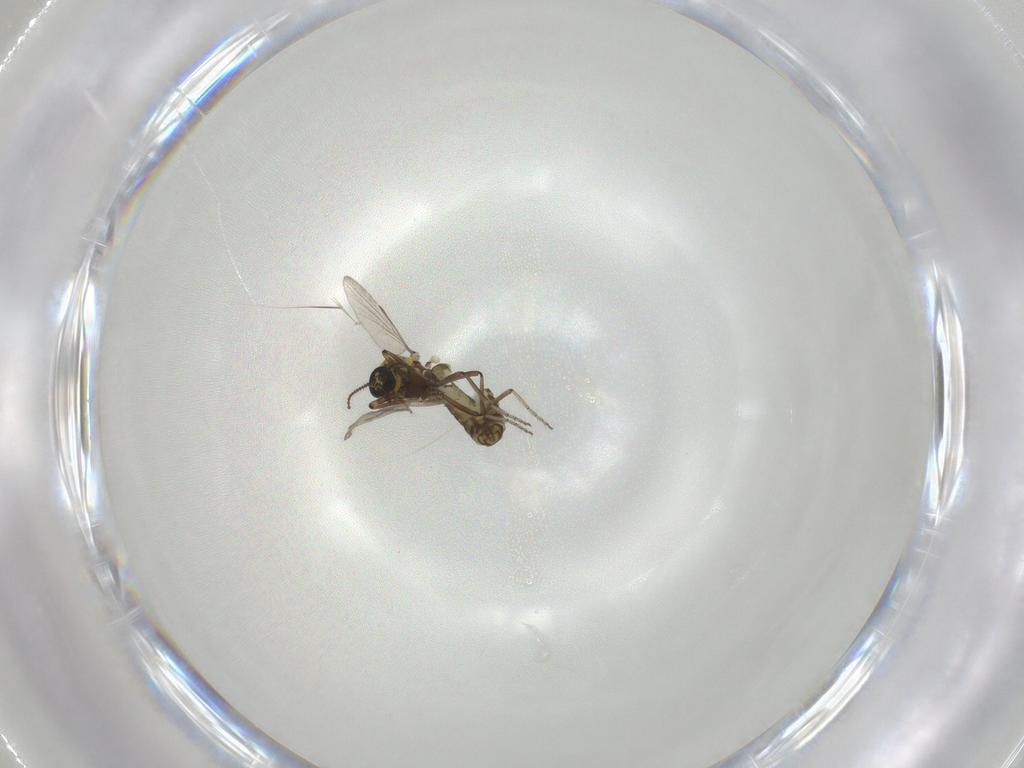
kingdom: Animalia
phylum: Arthropoda
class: Insecta
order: Diptera
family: Ceratopogonidae
